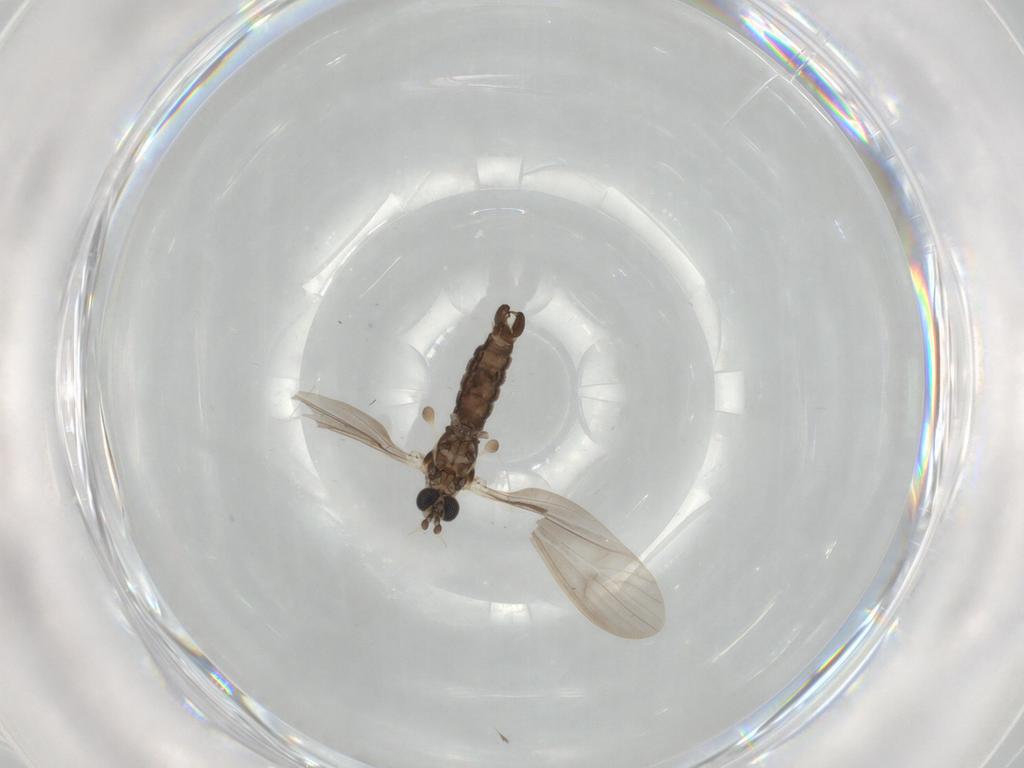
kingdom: Animalia
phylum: Arthropoda
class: Insecta
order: Diptera
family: Limoniidae
